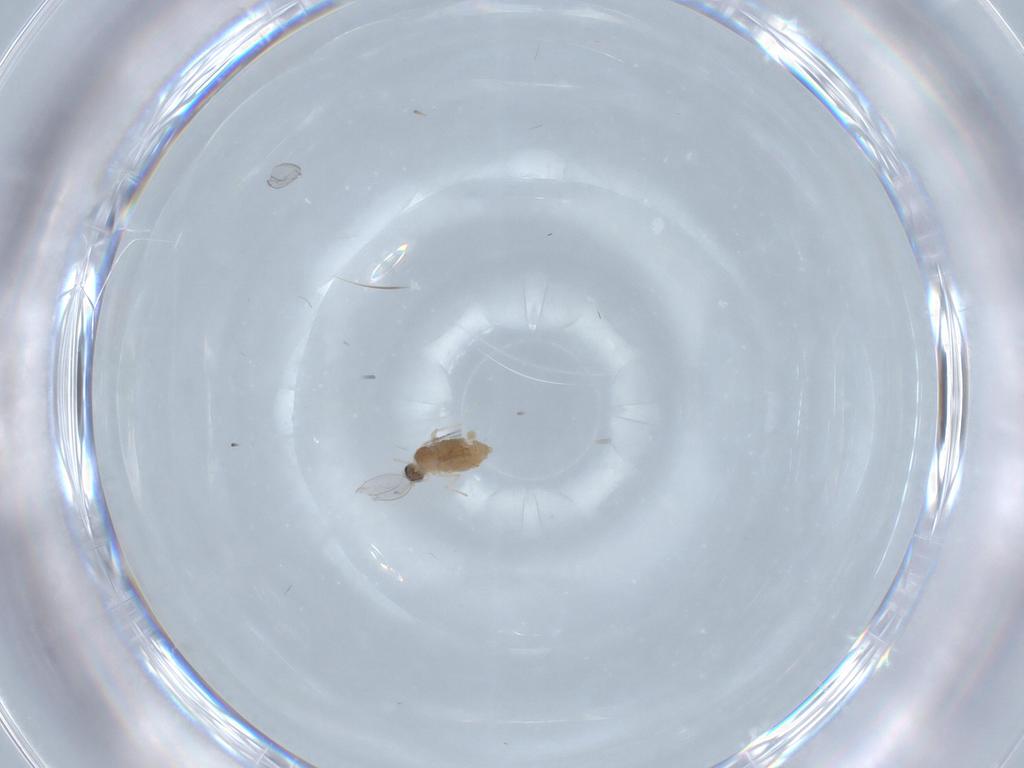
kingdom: Animalia
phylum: Arthropoda
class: Insecta
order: Diptera
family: Cecidomyiidae
